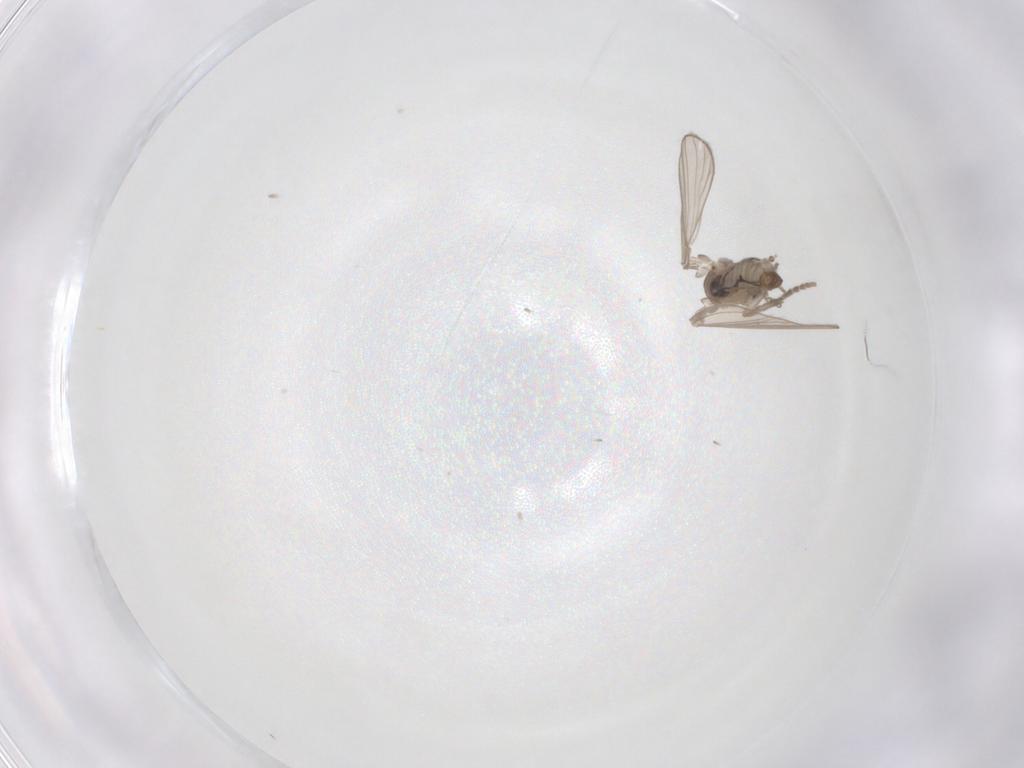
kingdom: Animalia
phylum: Arthropoda
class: Insecta
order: Diptera
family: Psychodidae
